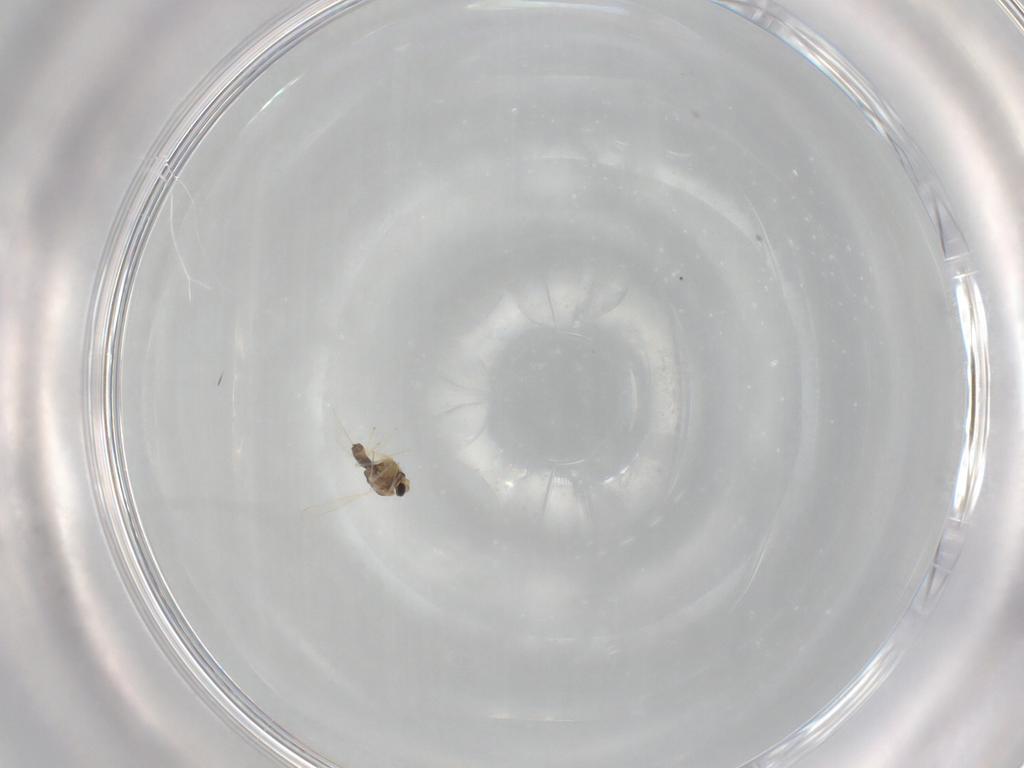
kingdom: Animalia
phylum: Arthropoda
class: Insecta
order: Diptera
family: Chironomidae
